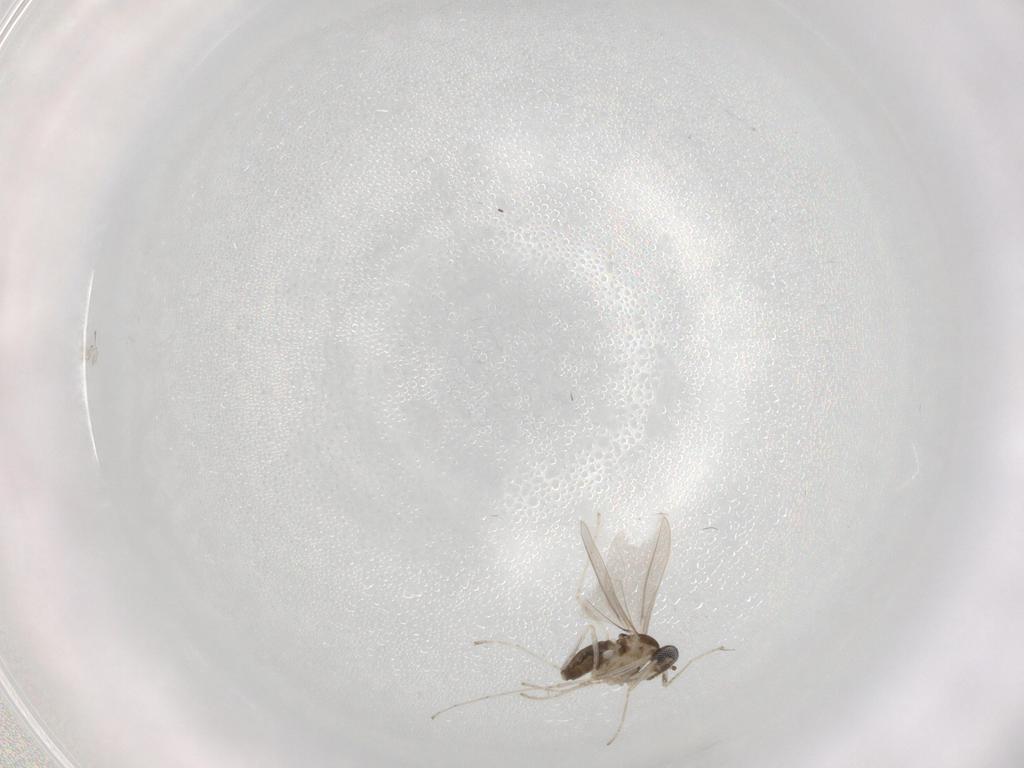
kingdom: Animalia
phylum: Arthropoda
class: Insecta
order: Diptera
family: Cecidomyiidae
